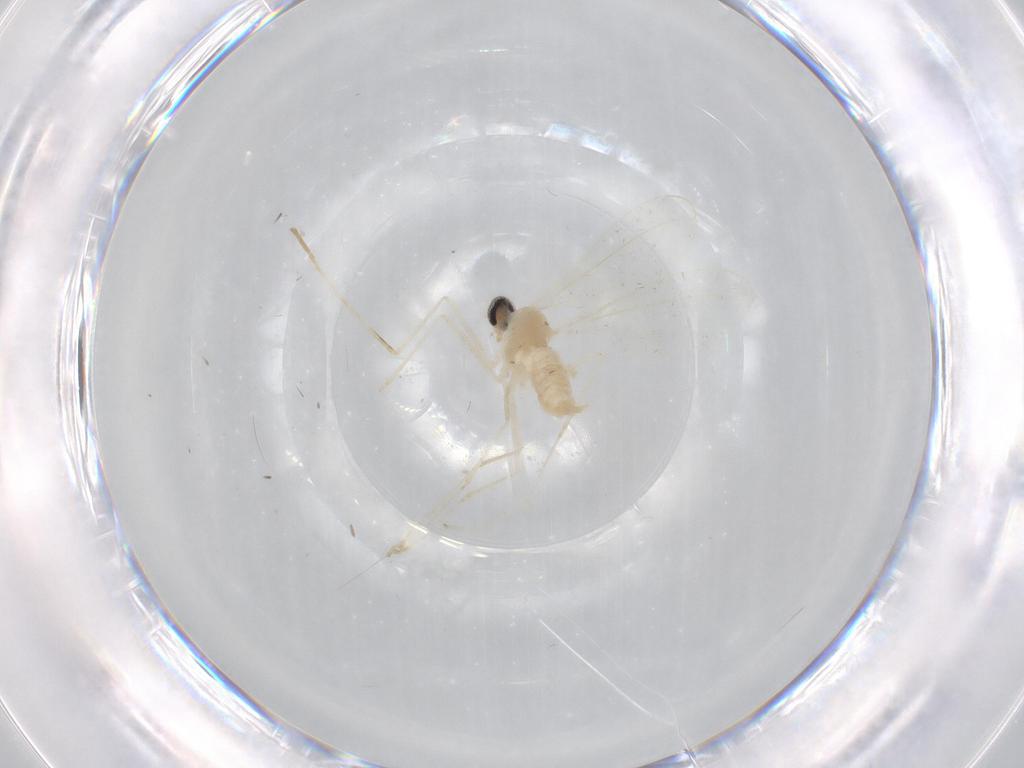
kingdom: Animalia
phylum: Arthropoda
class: Insecta
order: Diptera
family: Cecidomyiidae
